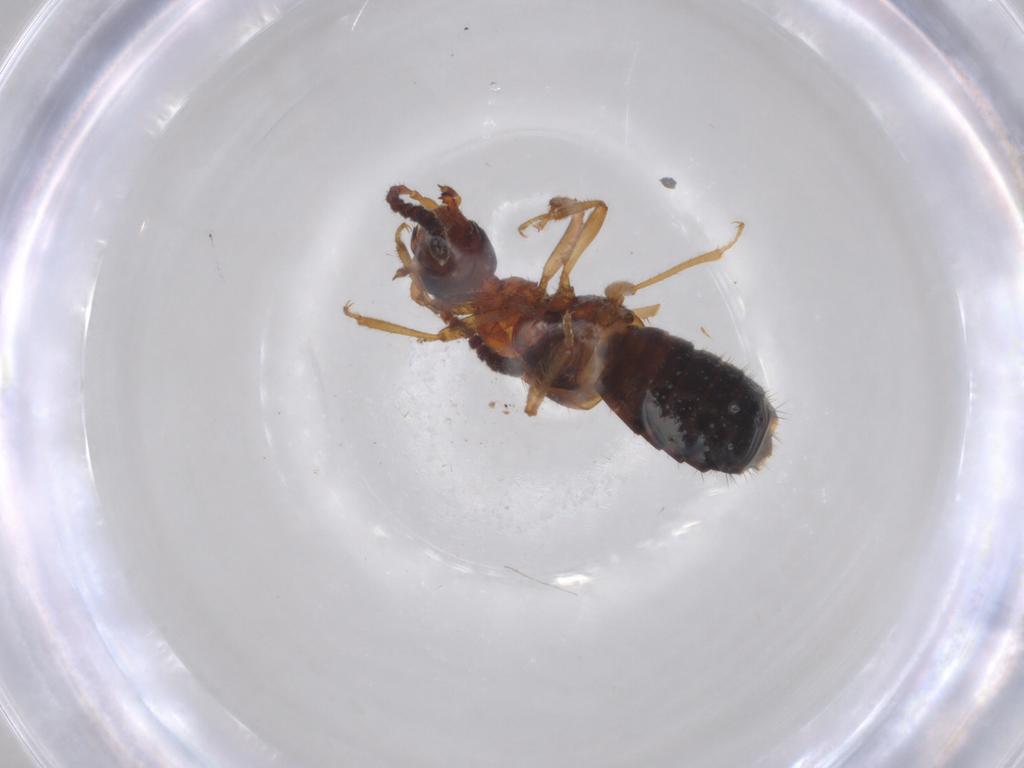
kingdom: Animalia
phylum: Arthropoda
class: Insecta
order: Coleoptera
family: Staphylinidae
